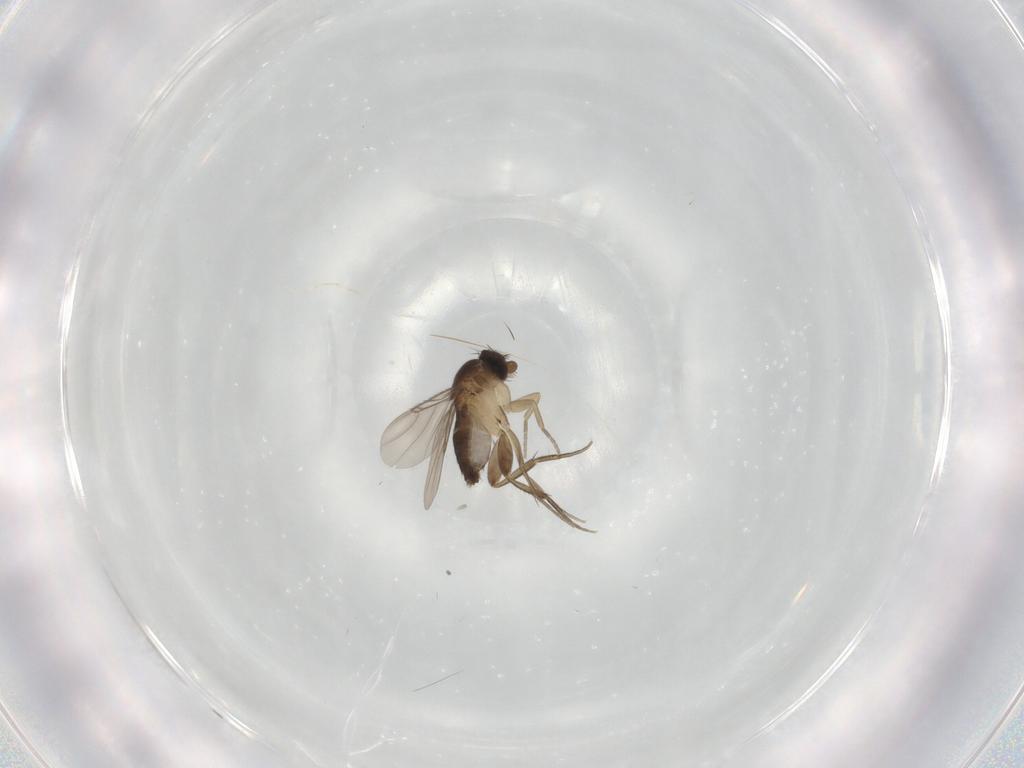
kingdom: Animalia
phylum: Arthropoda
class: Insecta
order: Diptera
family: Phoridae
